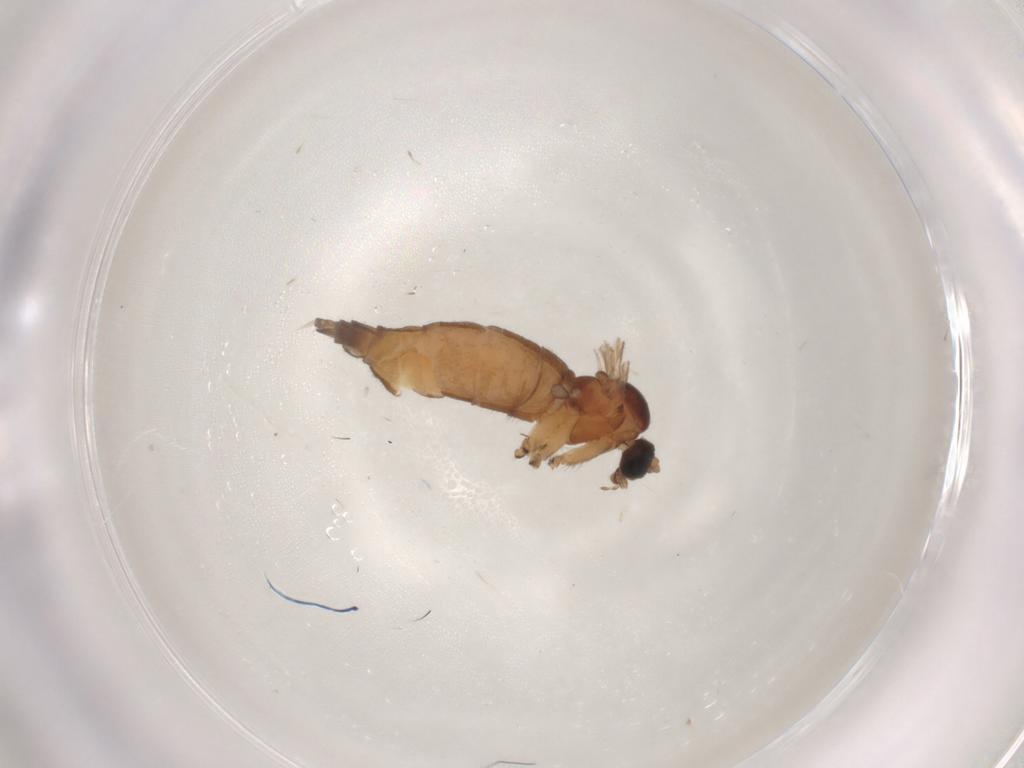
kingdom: Animalia
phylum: Arthropoda
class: Insecta
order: Diptera
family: Sciaridae
